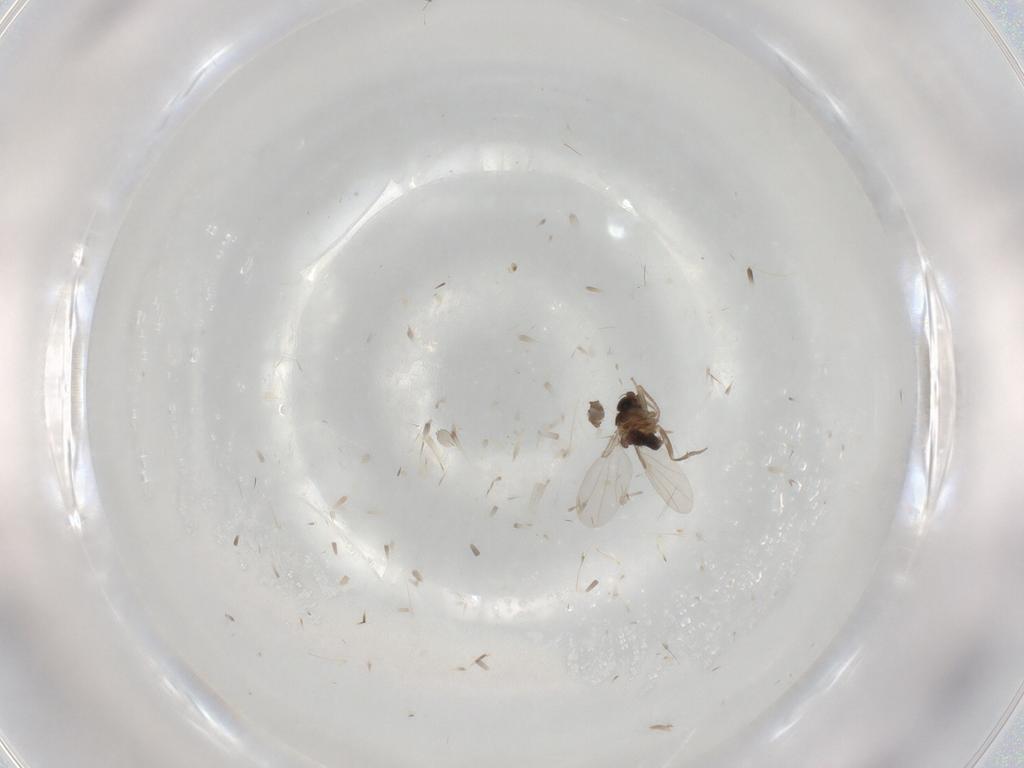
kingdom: Animalia
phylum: Arthropoda
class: Insecta
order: Diptera
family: Phoridae
